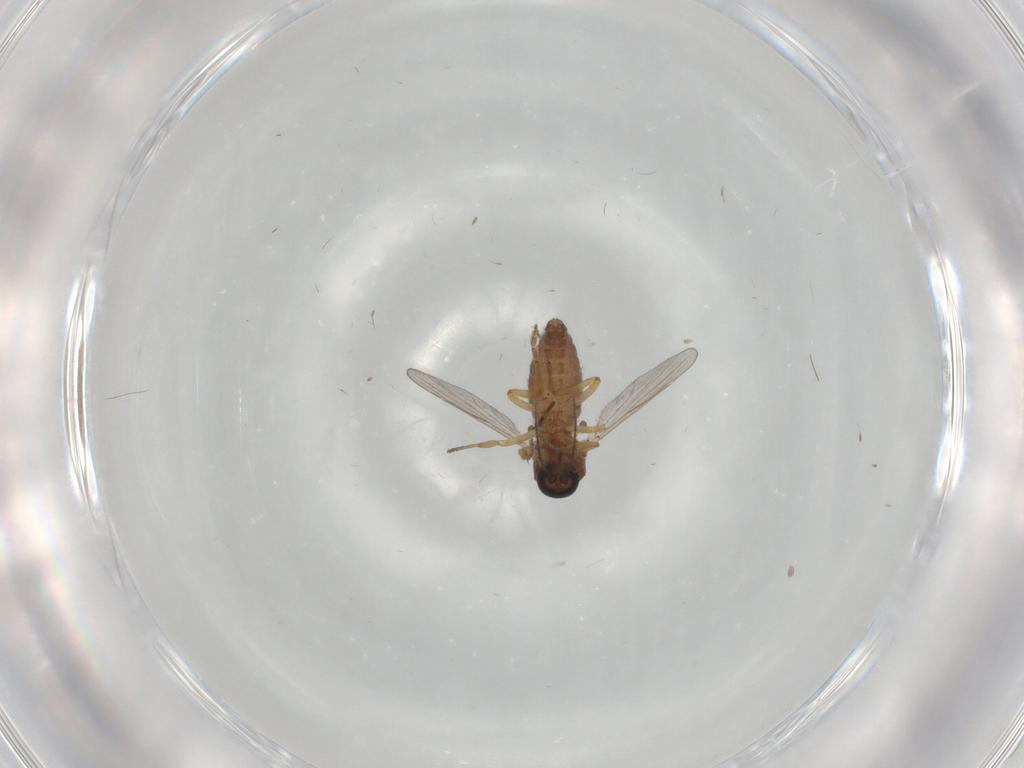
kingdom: Animalia
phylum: Arthropoda
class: Insecta
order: Diptera
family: Ceratopogonidae
